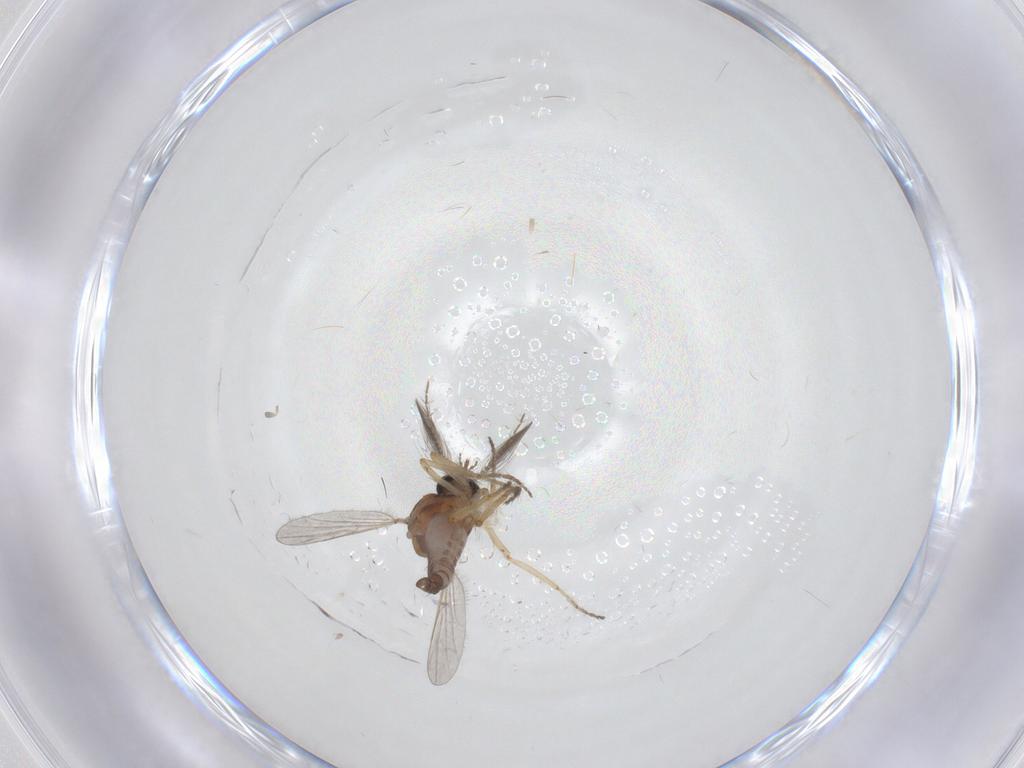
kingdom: Animalia
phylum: Arthropoda
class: Insecta
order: Diptera
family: Ceratopogonidae
